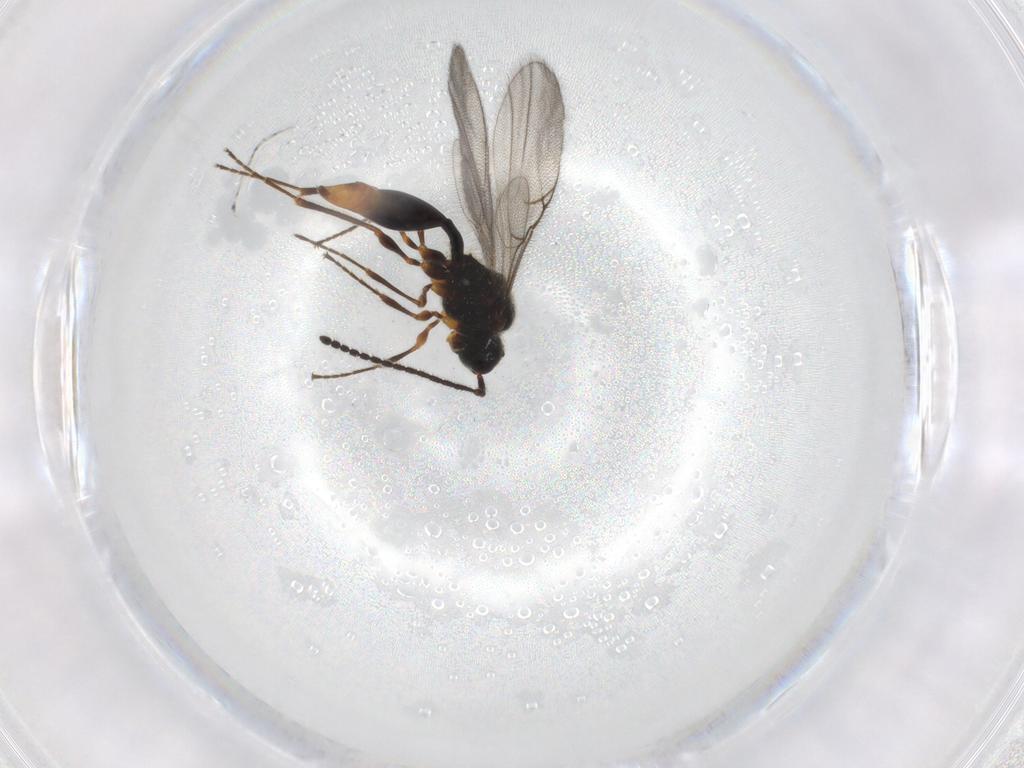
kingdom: Animalia
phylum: Arthropoda
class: Insecta
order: Hymenoptera
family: Diapriidae
